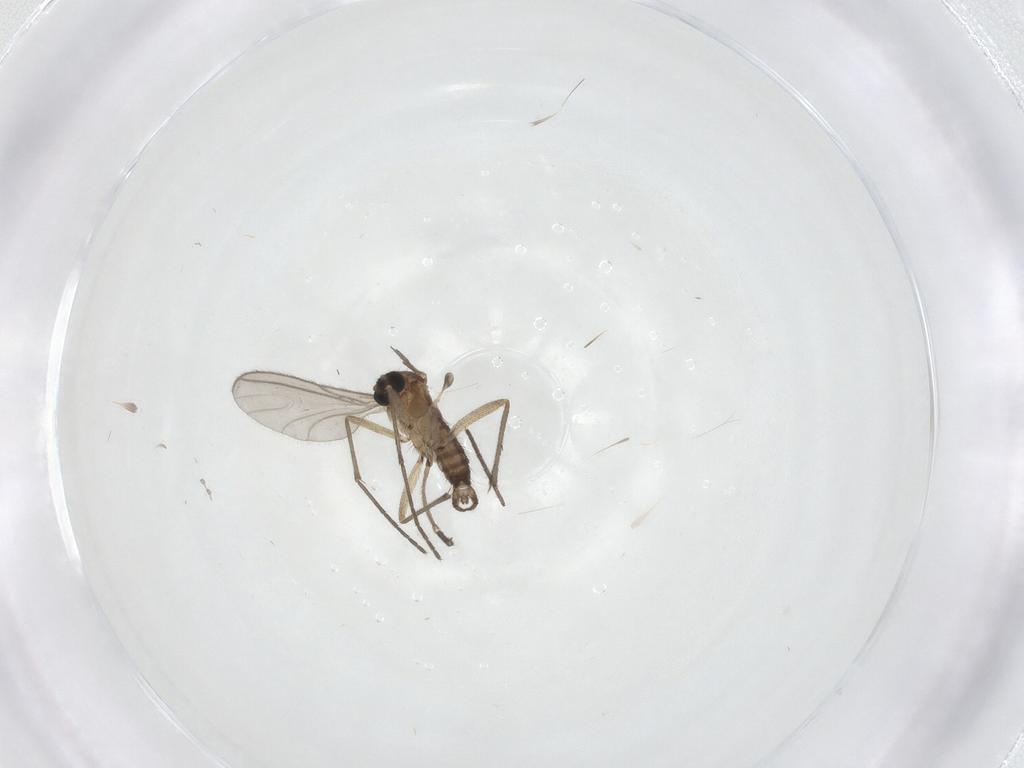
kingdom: Animalia
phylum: Arthropoda
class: Insecta
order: Diptera
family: Sciaridae
